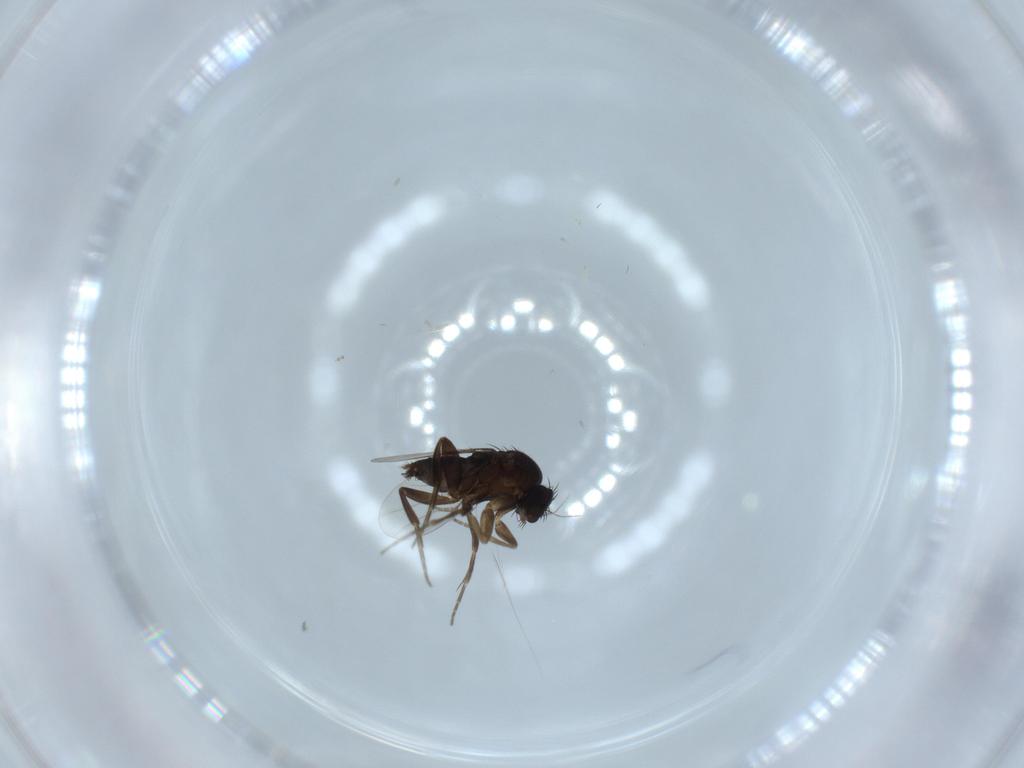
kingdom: Animalia
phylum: Arthropoda
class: Insecta
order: Diptera
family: Phoridae
